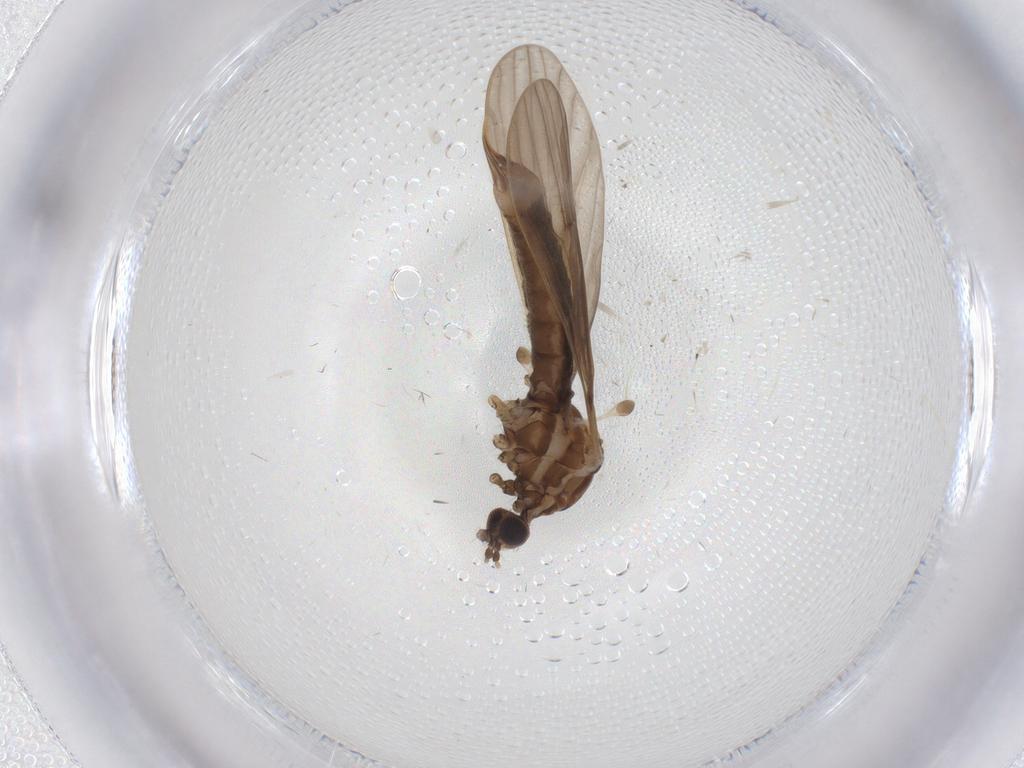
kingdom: Animalia
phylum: Arthropoda
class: Insecta
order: Diptera
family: Limoniidae
